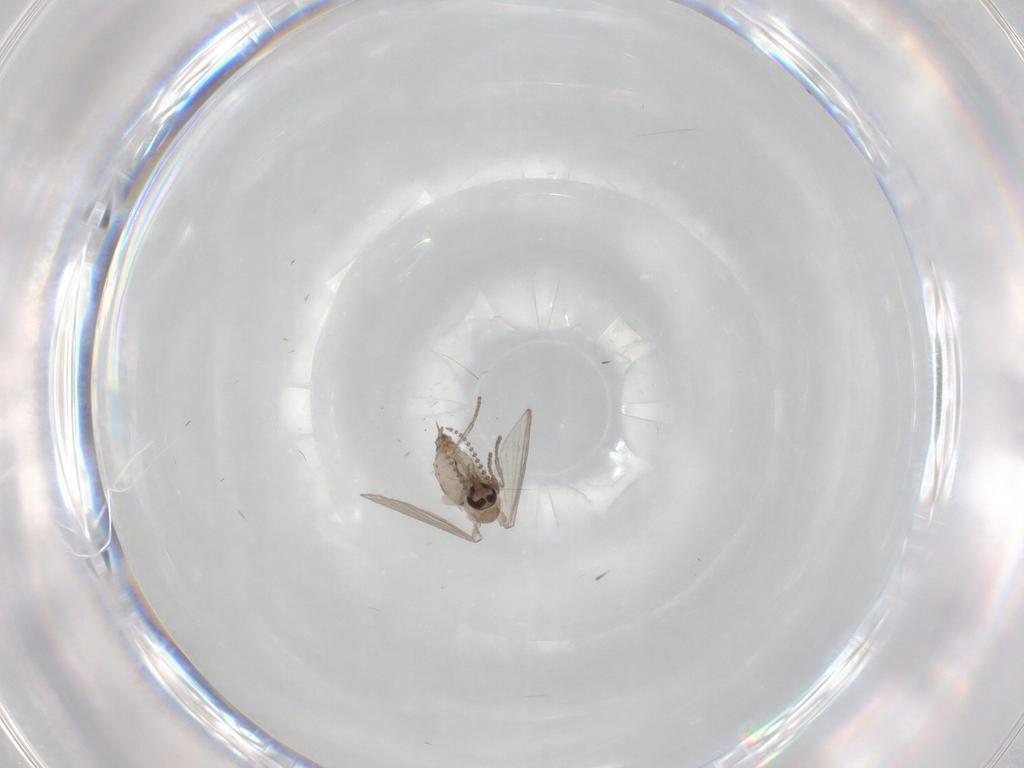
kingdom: Animalia
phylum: Arthropoda
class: Insecta
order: Diptera
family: Psychodidae
